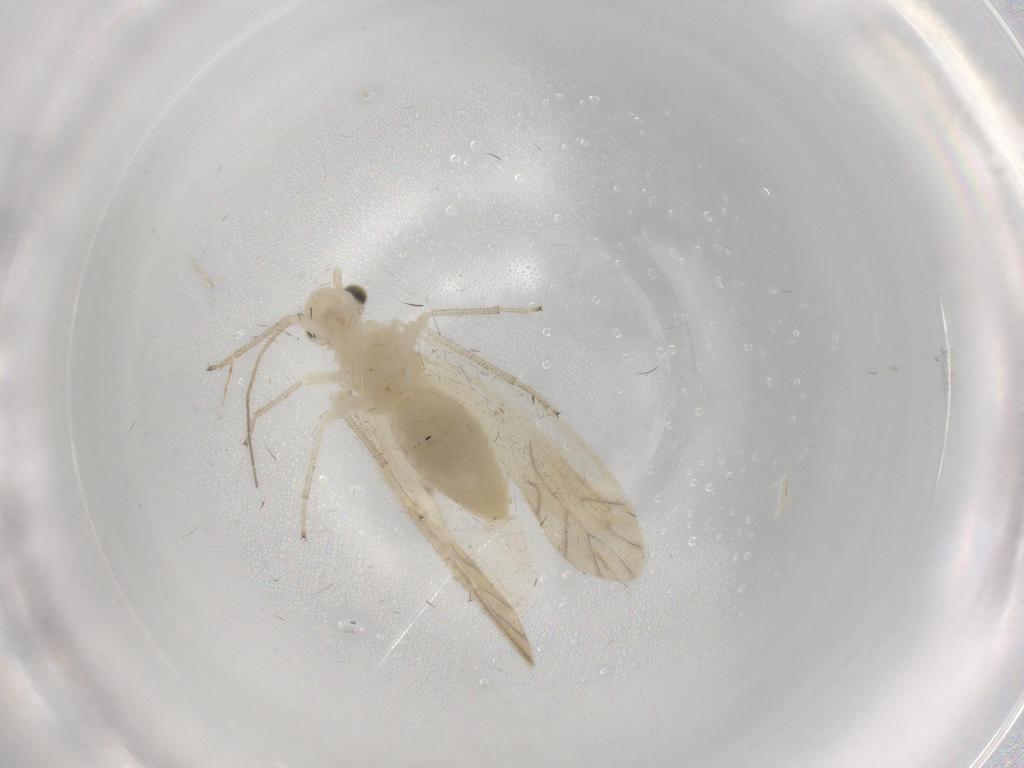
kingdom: Animalia
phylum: Arthropoda
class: Insecta
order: Psocodea
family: Caeciliusidae
